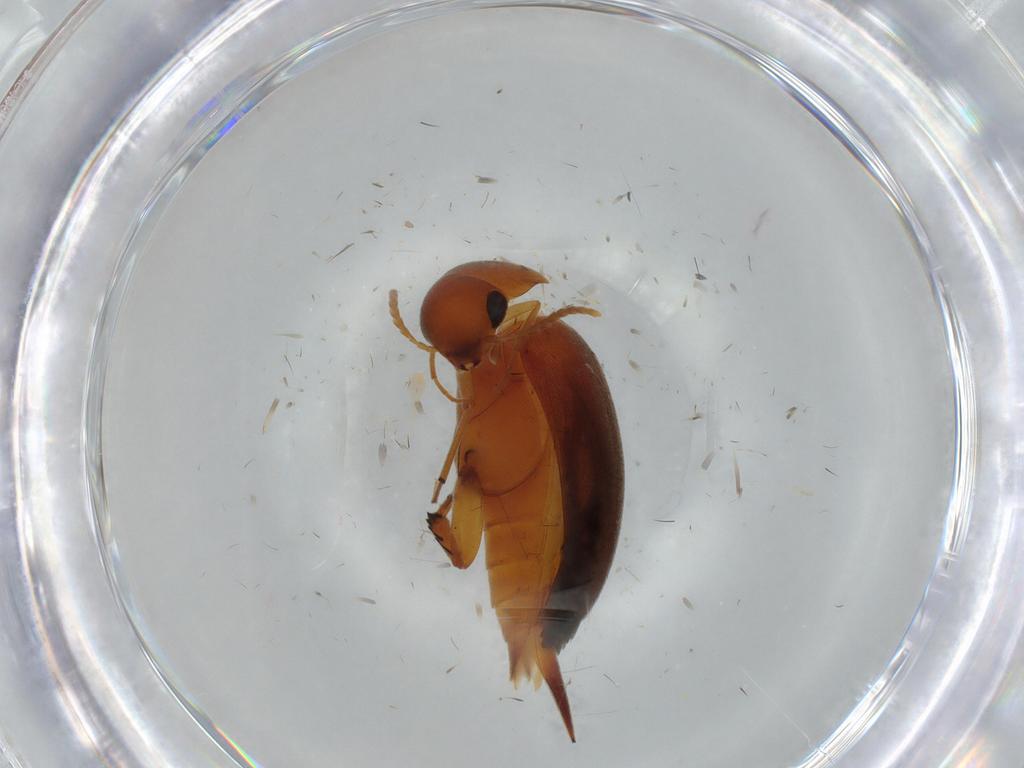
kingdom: Animalia
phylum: Arthropoda
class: Insecta
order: Coleoptera
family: Mordellidae
